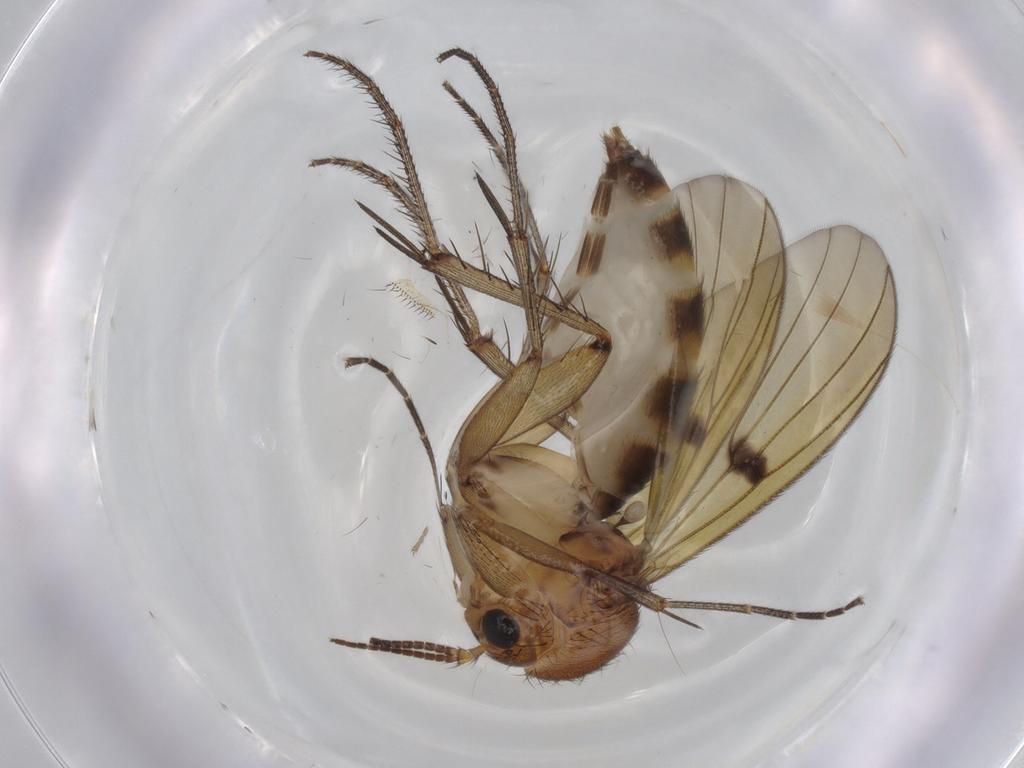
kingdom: Animalia
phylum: Arthropoda
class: Insecta
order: Diptera
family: Mycetophilidae
